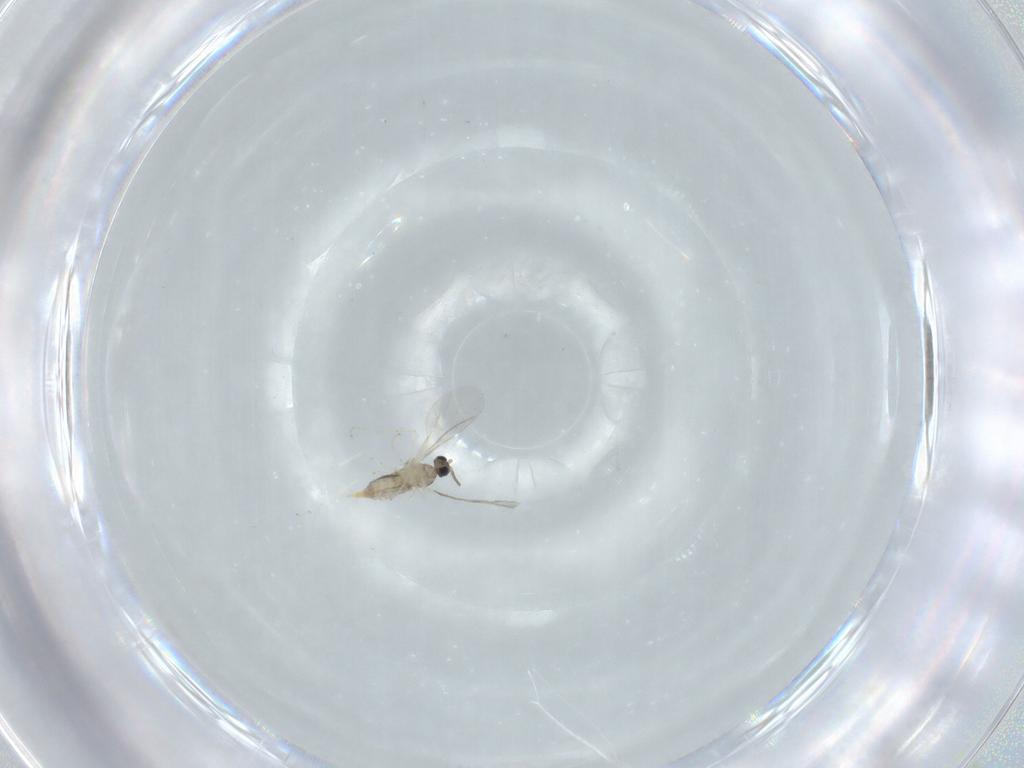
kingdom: Animalia
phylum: Arthropoda
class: Insecta
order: Diptera
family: Cecidomyiidae
